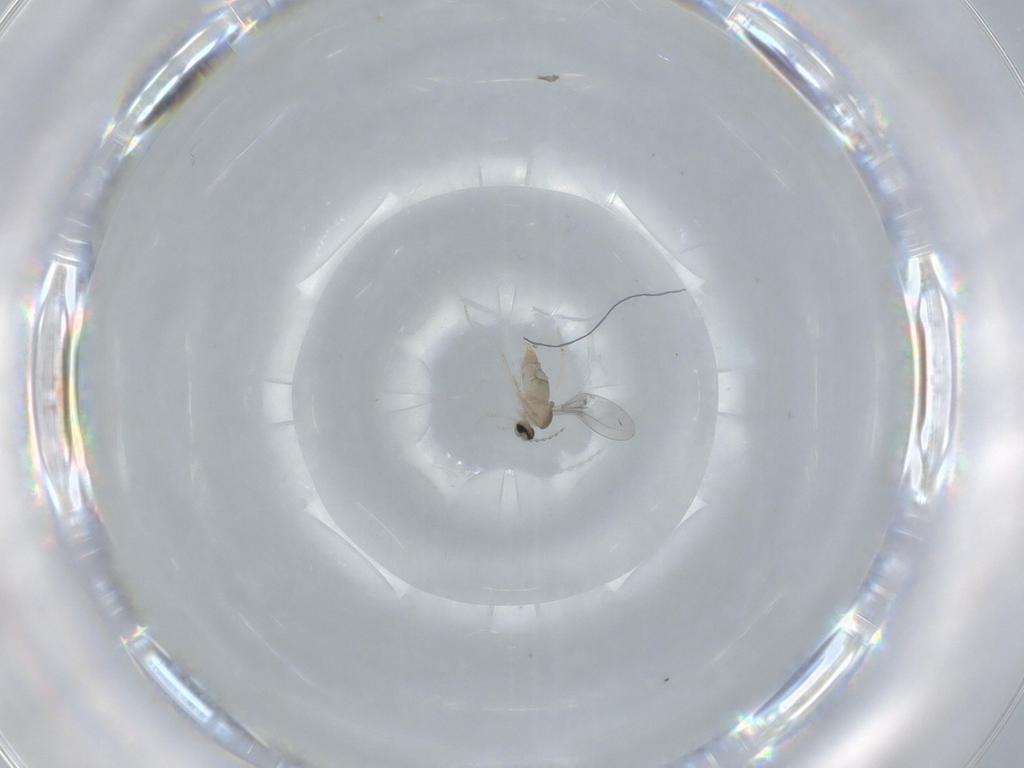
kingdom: Animalia
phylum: Arthropoda
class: Insecta
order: Diptera
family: Cecidomyiidae
